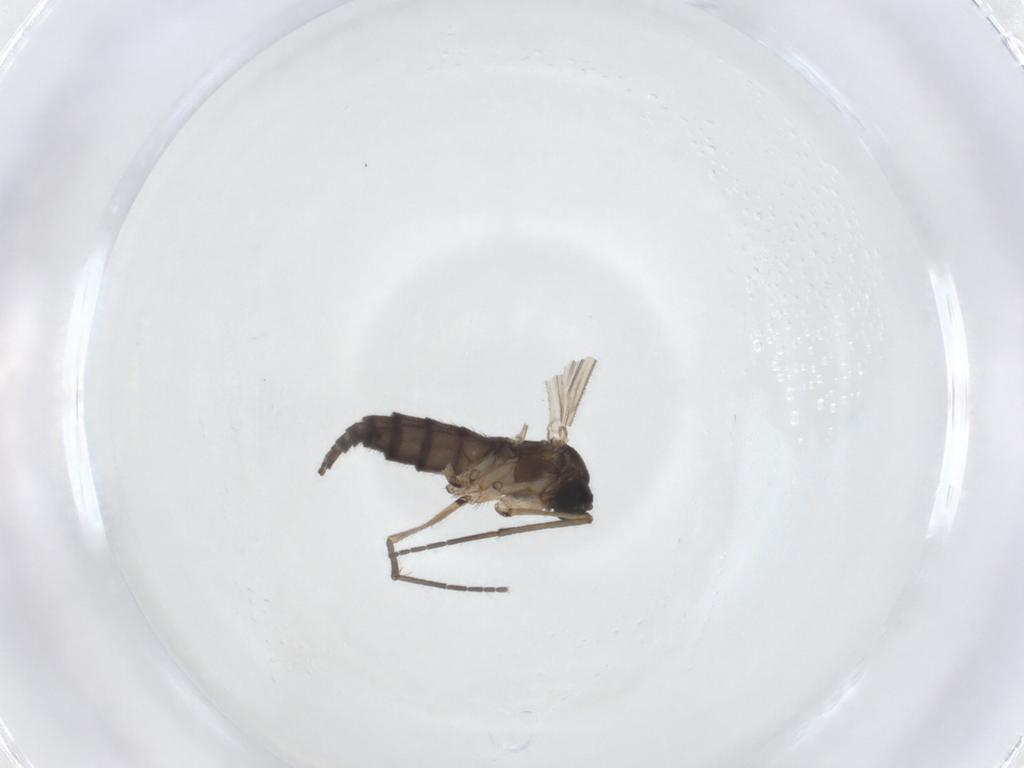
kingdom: Animalia
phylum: Arthropoda
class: Insecta
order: Diptera
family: Sciaridae
